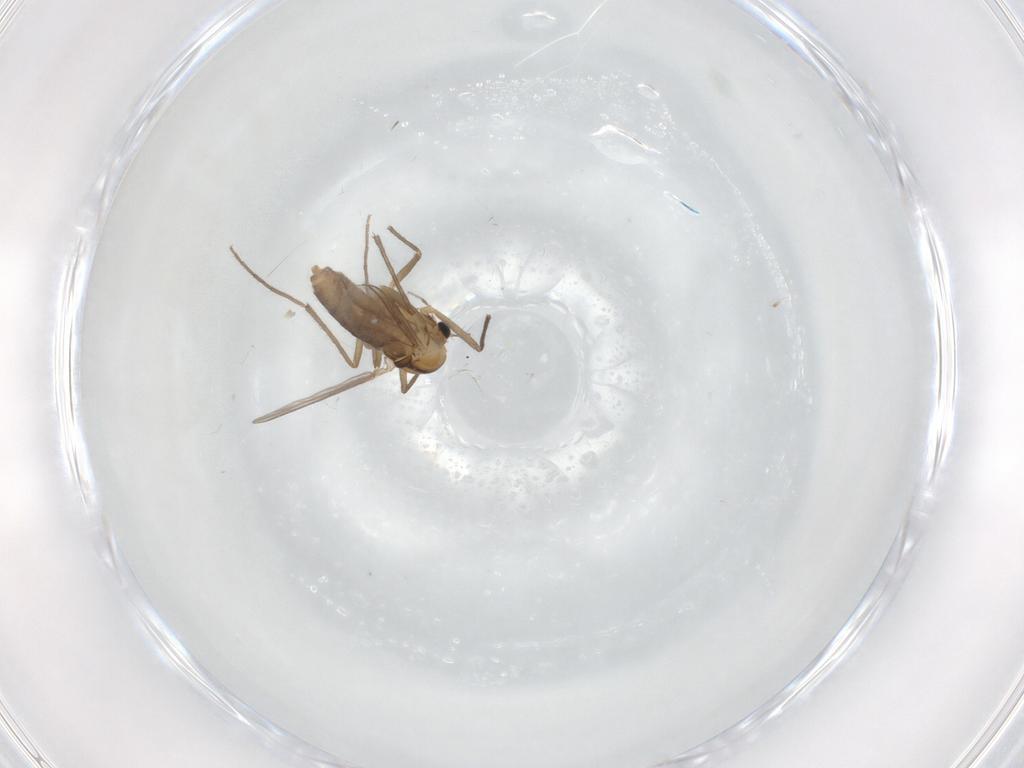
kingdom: Animalia
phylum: Arthropoda
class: Insecta
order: Diptera
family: Chironomidae
